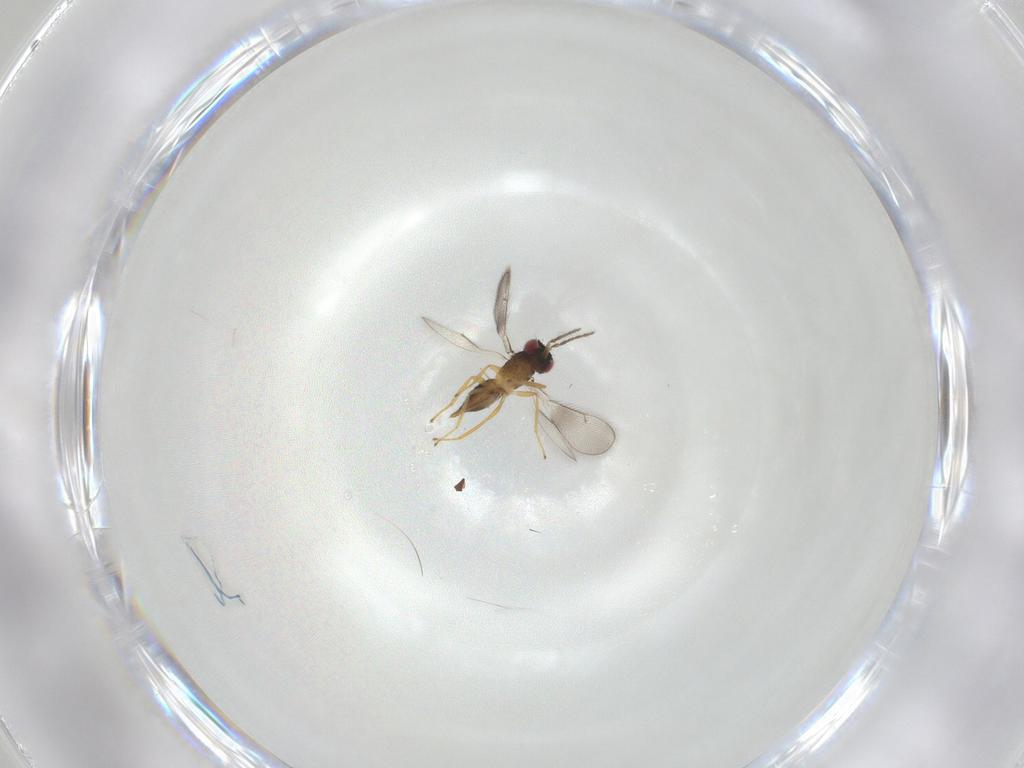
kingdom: Animalia
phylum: Arthropoda
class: Insecta
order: Hymenoptera
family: Eulophidae
